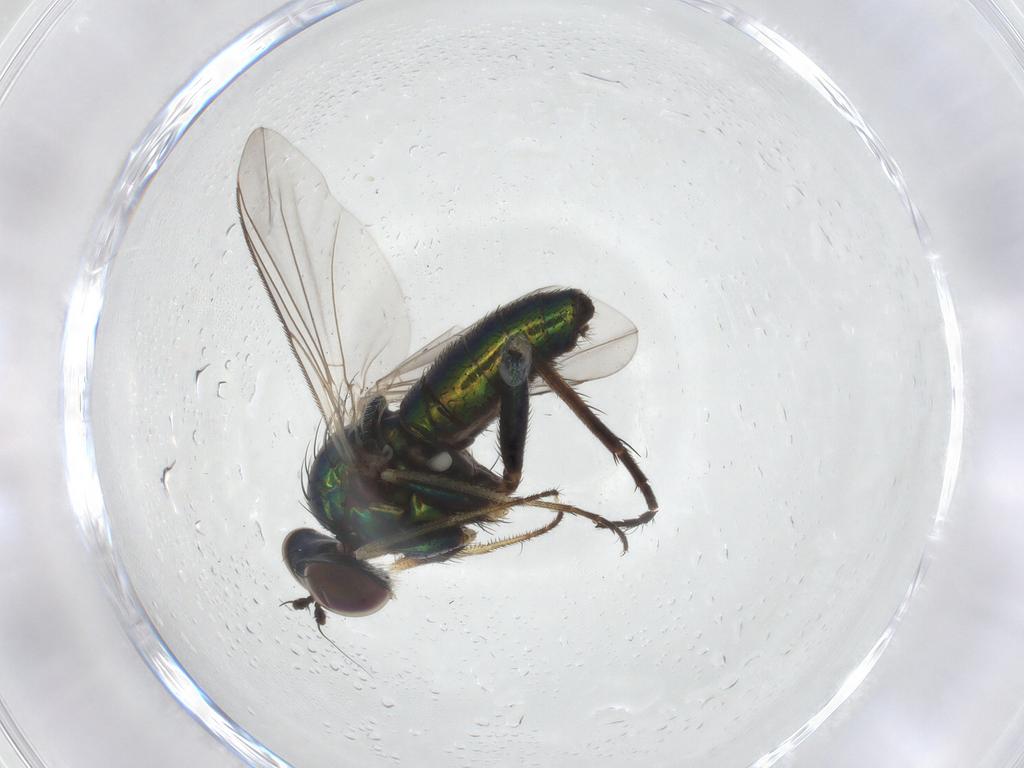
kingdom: Animalia
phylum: Arthropoda
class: Insecta
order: Diptera
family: Dolichopodidae
